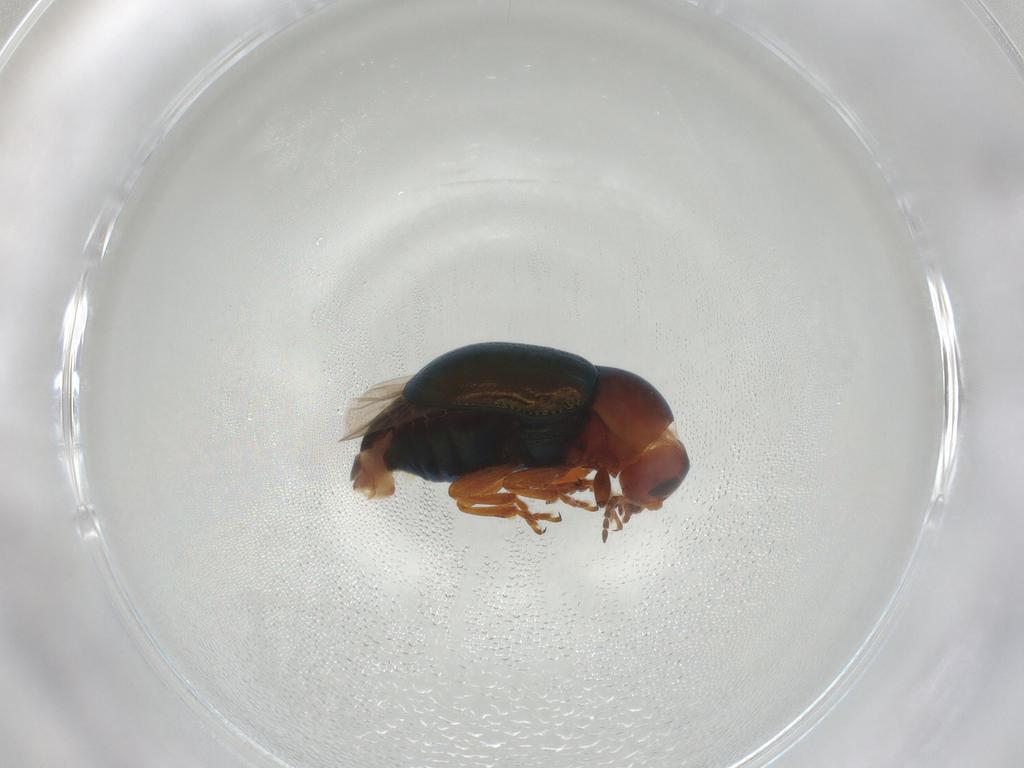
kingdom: Animalia
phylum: Arthropoda
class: Insecta
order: Coleoptera
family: Chrysomelidae
